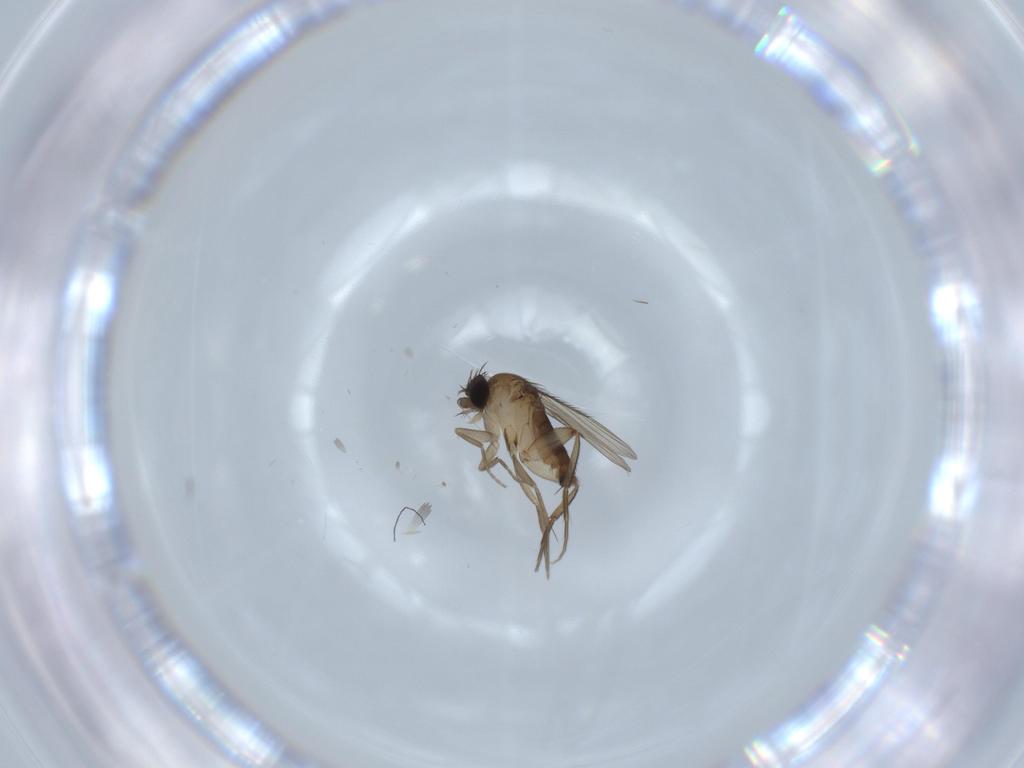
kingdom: Animalia
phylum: Arthropoda
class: Insecta
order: Diptera
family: Phoridae
